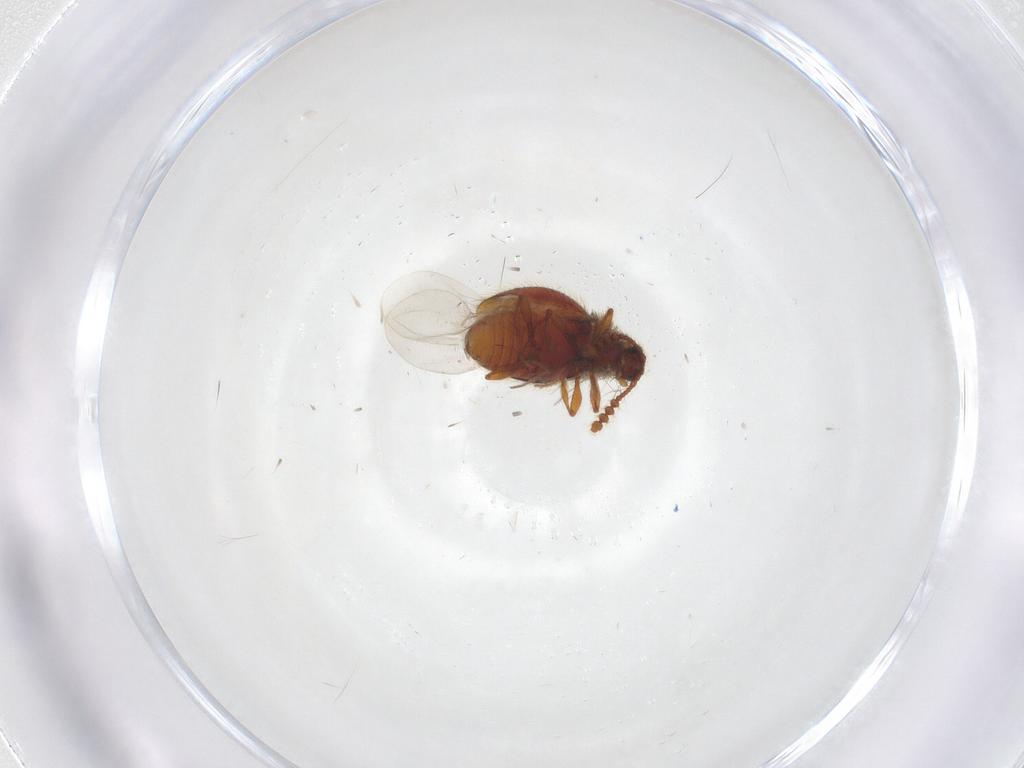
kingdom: Animalia
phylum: Arthropoda
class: Insecta
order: Coleoptera
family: Staphylinidae
